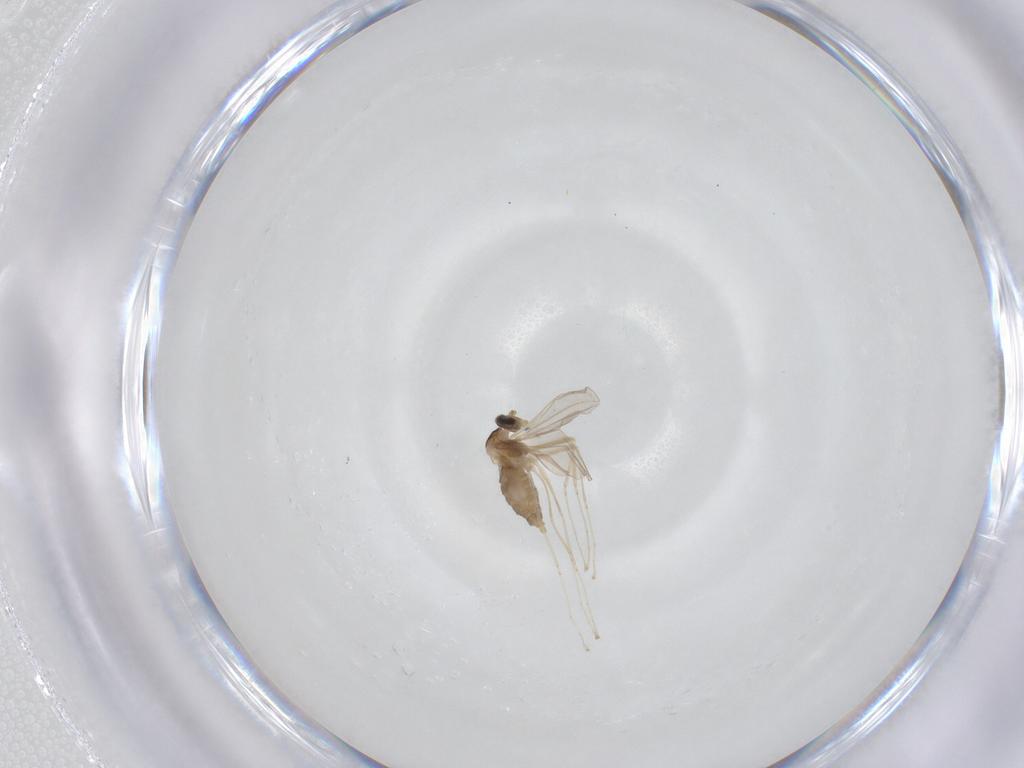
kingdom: Animalia
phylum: Arthropoda
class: Insecta
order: Diptera
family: Cecidomyiidae
